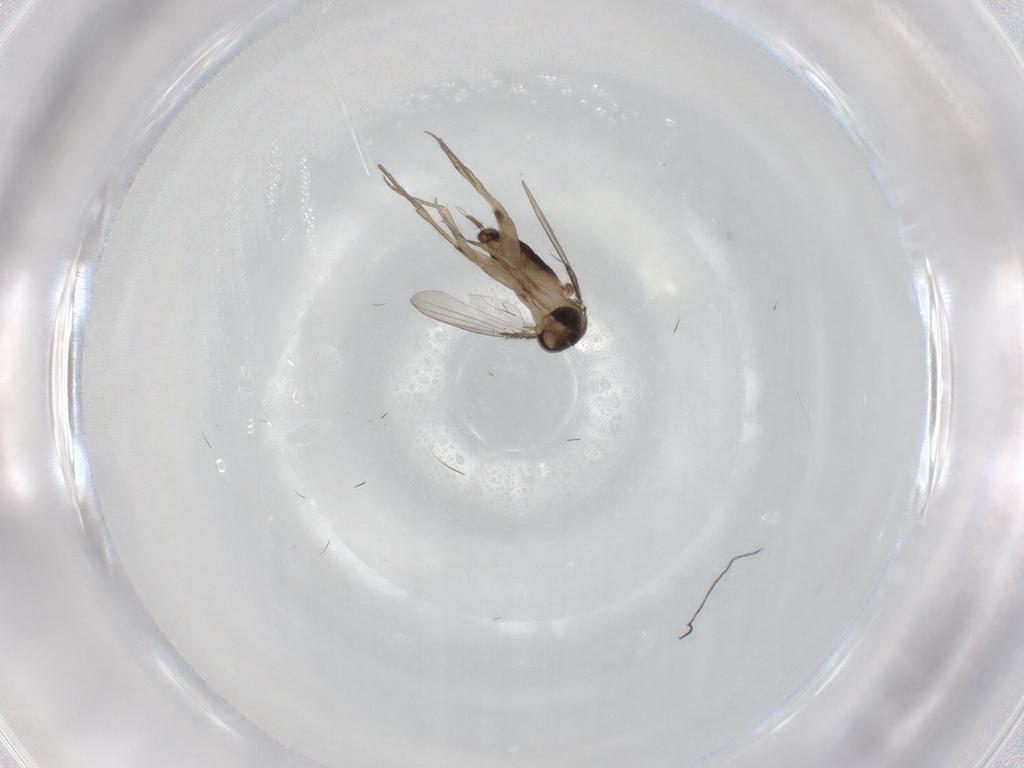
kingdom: Animalia
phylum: Arthropoda
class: Insecta
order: Diptera
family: Phoridae
